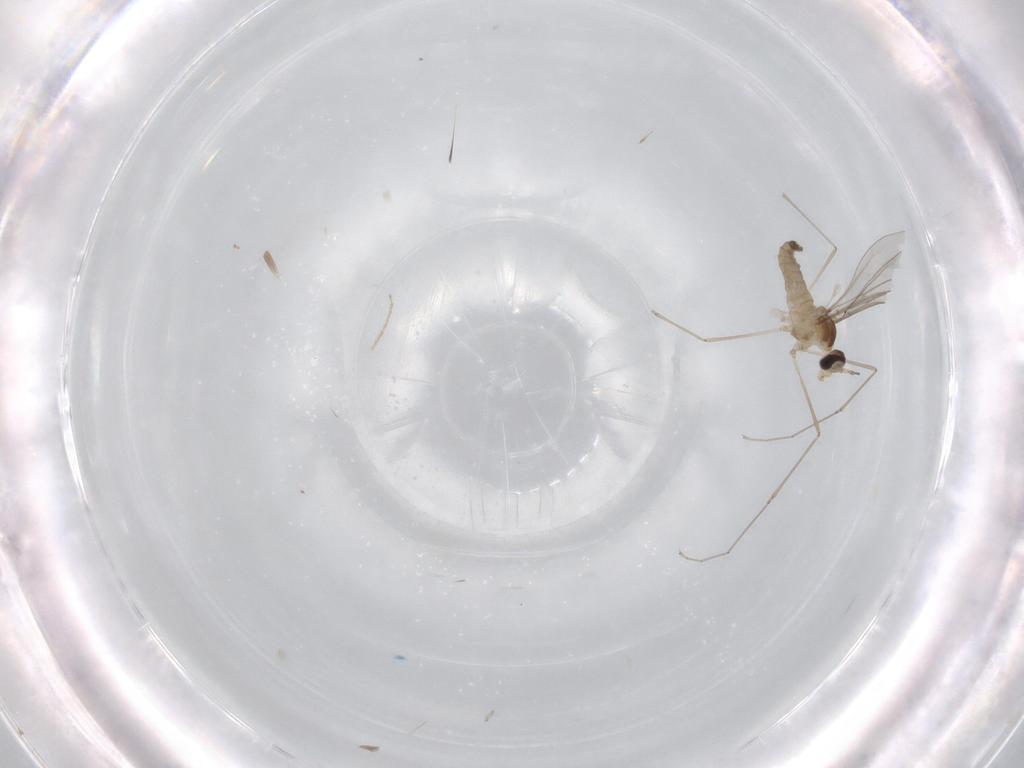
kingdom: Animalia
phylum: Arthropoda
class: Insecta
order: Diptera
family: Cecidomyiidae
